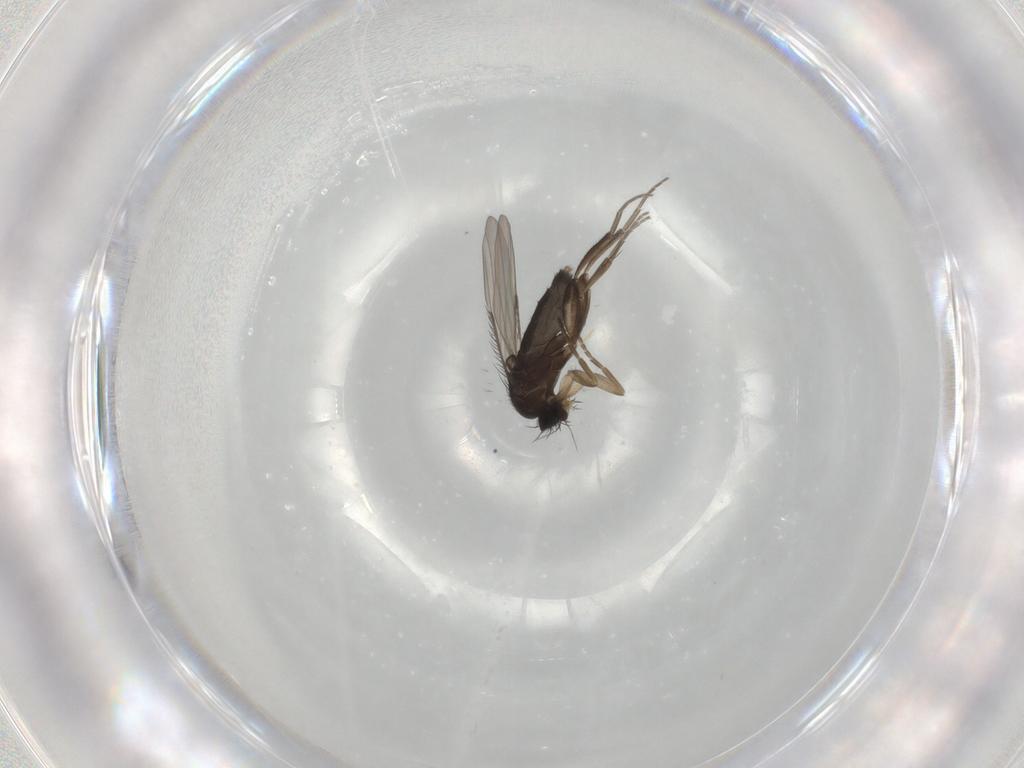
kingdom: Animalia
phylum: Arthropoda
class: Insecta
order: Diptera
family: Phoridae
